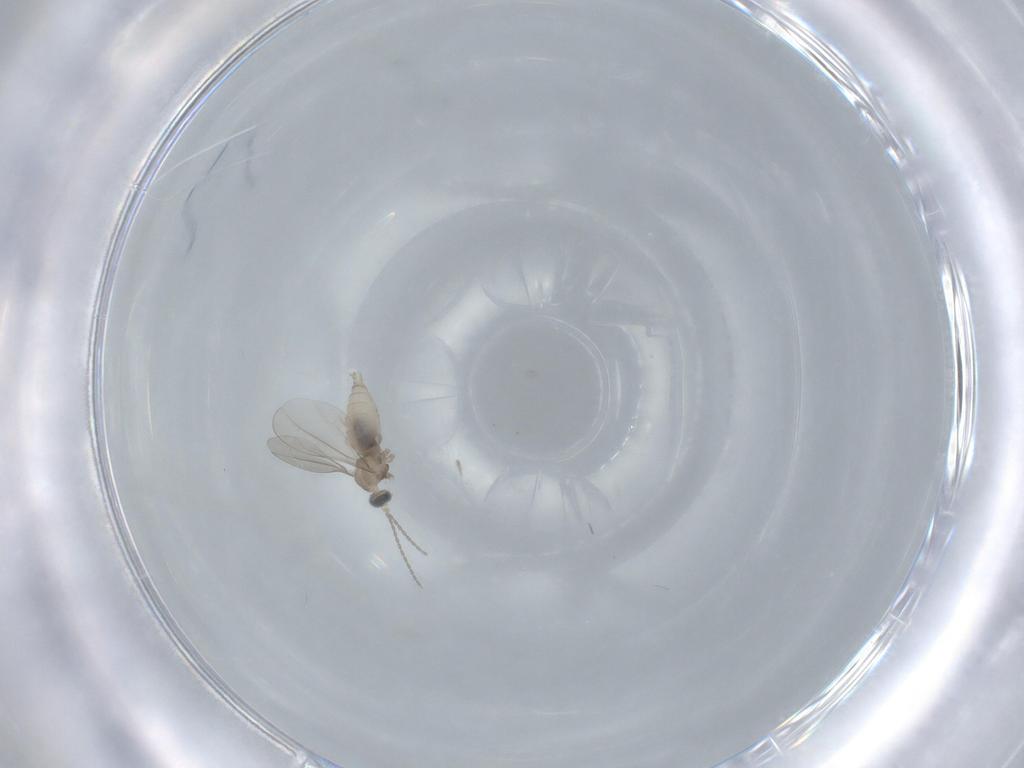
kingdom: Animalia
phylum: Arthropoda
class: Insecta
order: Diptera
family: Cecidomyiidae
